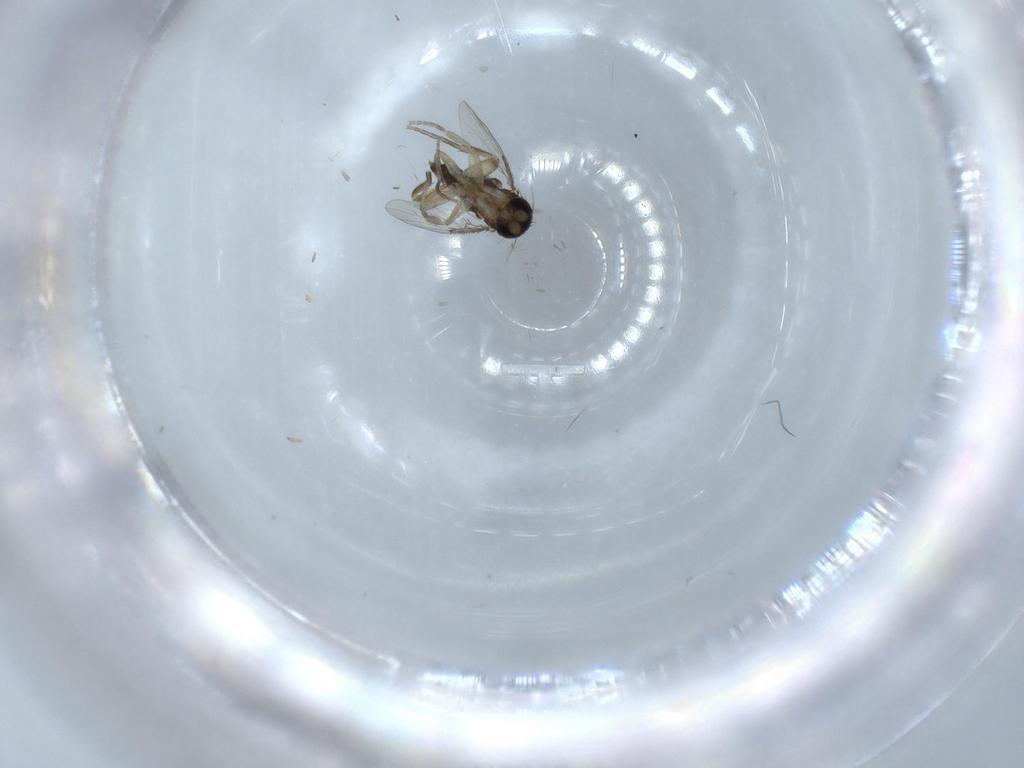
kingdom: Animalia
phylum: Arthropoda
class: Insecta
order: Diptera
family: Phoridae
